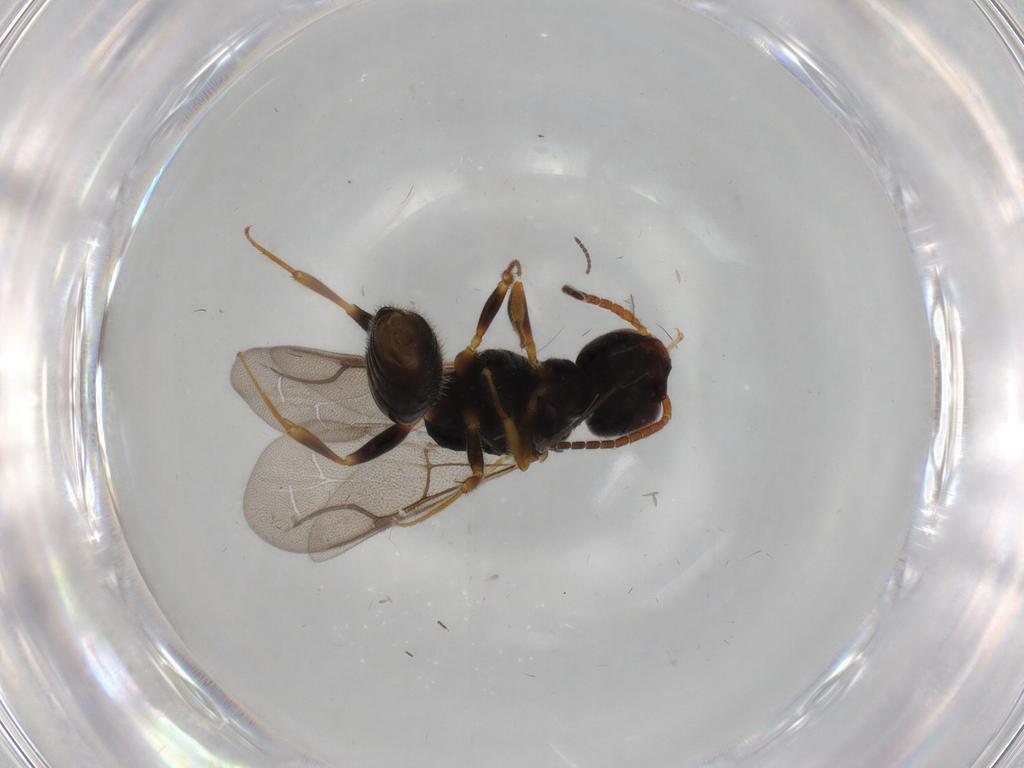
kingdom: Animalia
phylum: Arthropoda
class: Insecta
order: Hymenoptera
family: Bethylidae
